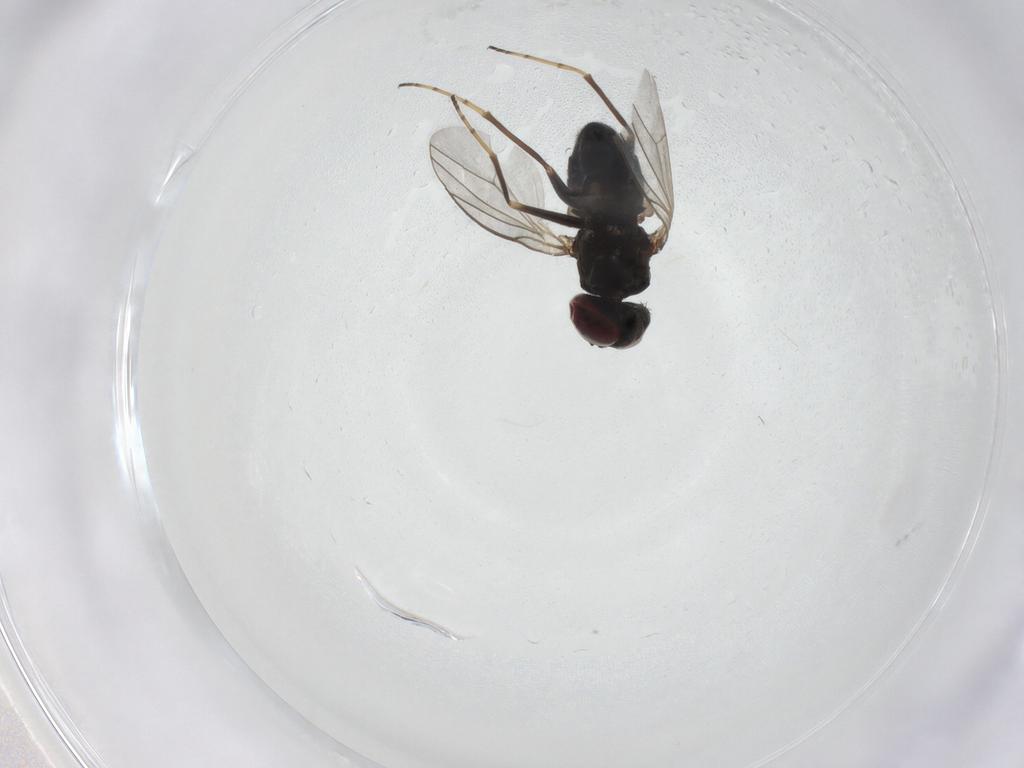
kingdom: Animalia
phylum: Arthropoda
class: Insecta
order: Diptera
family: Dolichopodidae
